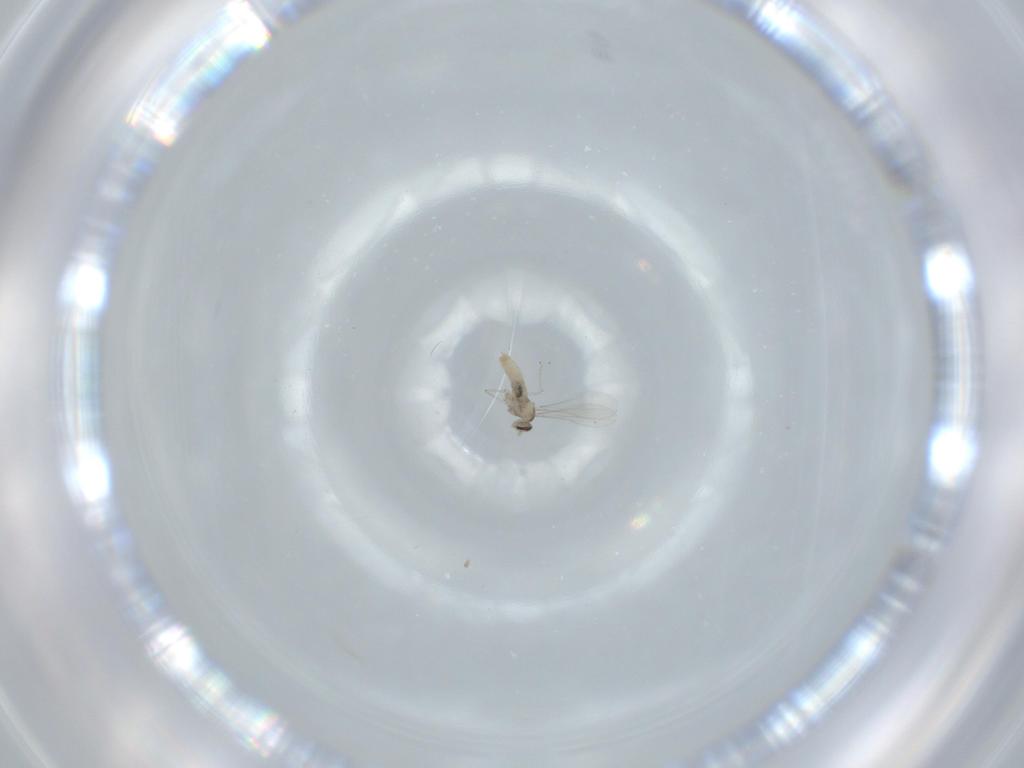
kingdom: Animalia
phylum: Arthropoda
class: Insecta
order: Diptera
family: Cecidomyiidae
